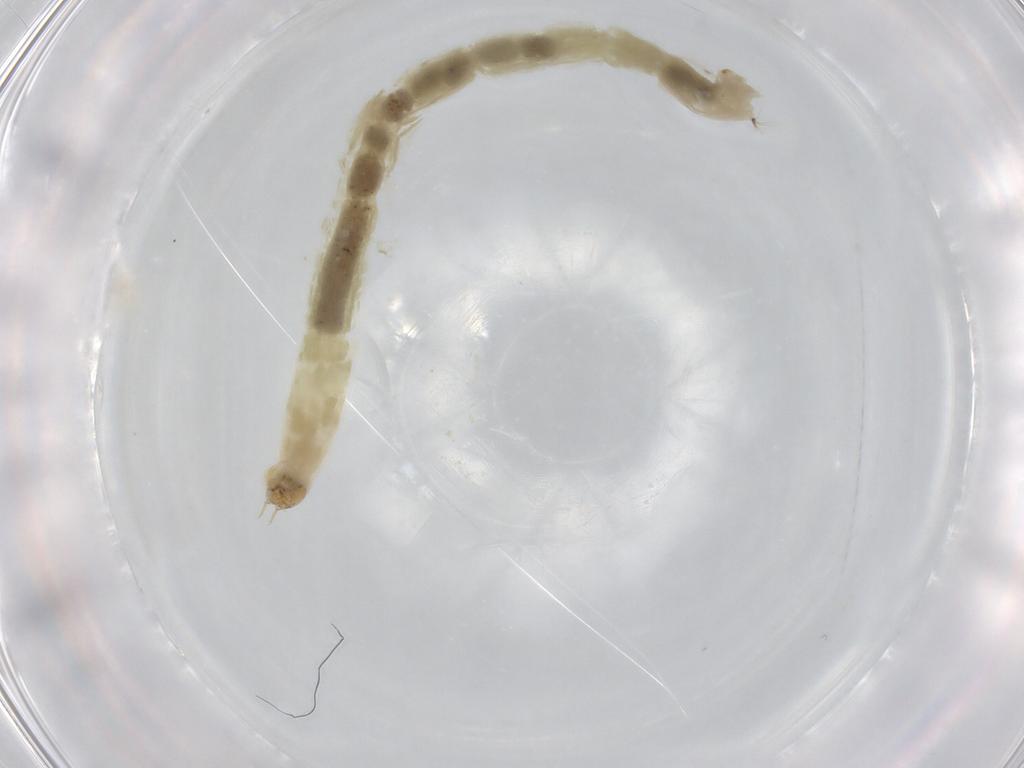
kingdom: Animalia
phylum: Arthropoda
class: Insecta
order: Diptera
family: Chironomidae
